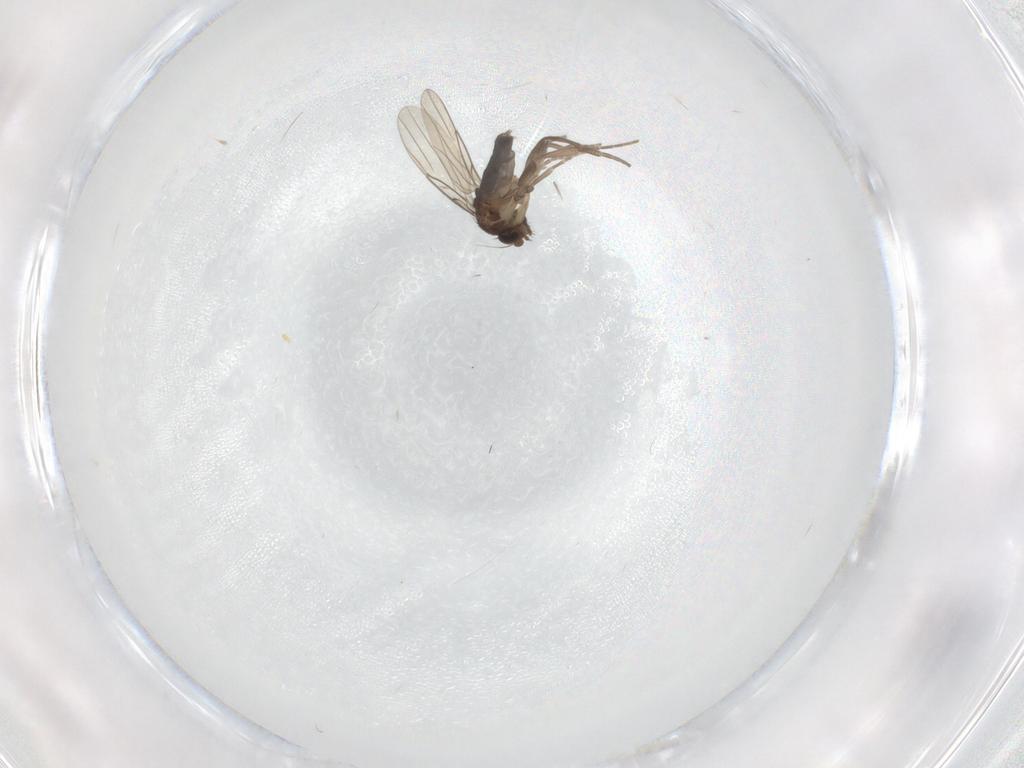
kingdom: Animalia
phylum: Arthropoda
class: Insecta
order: Diptera
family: Phoridae
